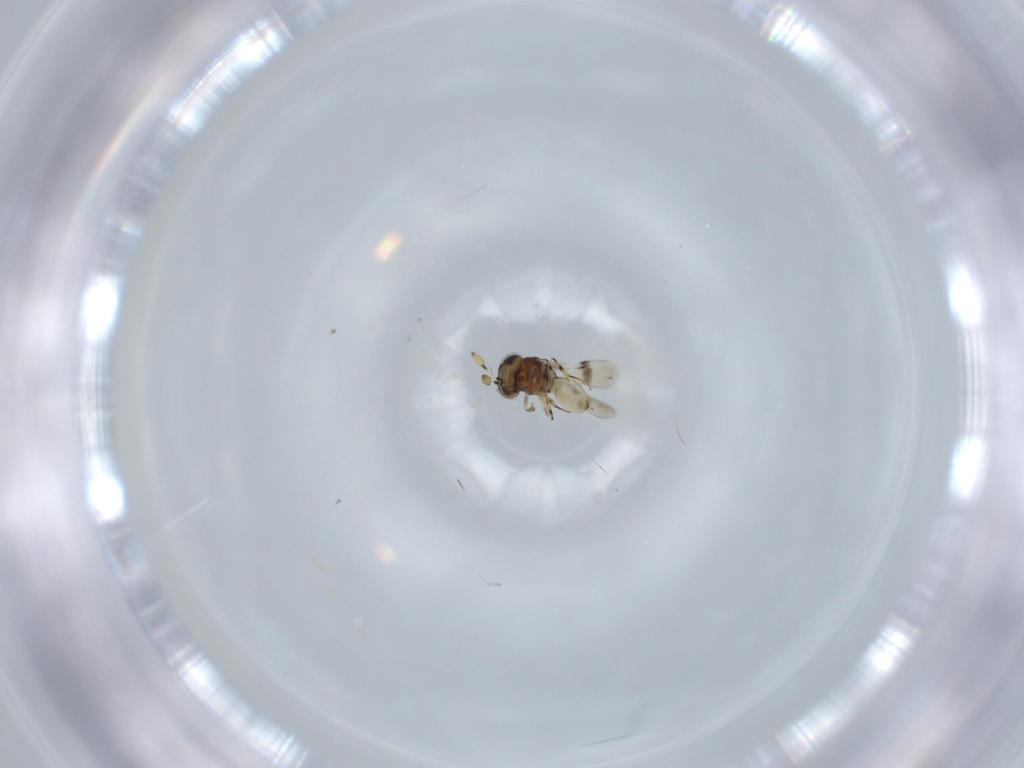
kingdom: Animalia
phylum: Arthropoda
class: Insecta
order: Hymenoptera
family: Scelionidae
